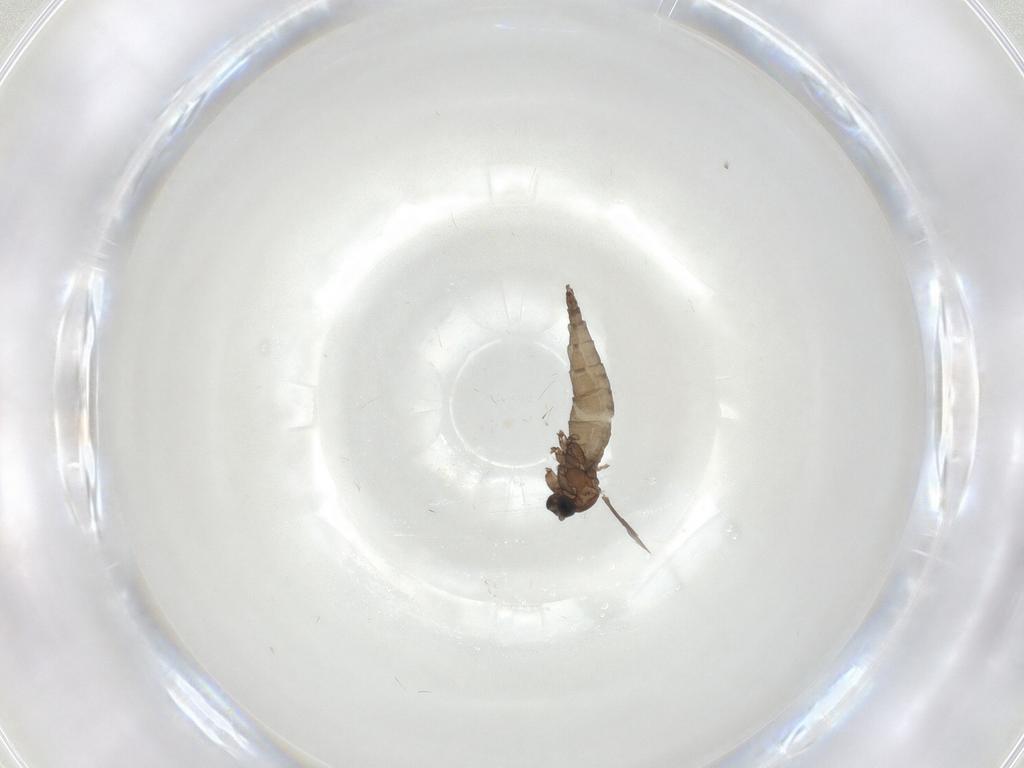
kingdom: Animalia
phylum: Arthropoda
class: Insecta
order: Diptera
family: Sciaridae
